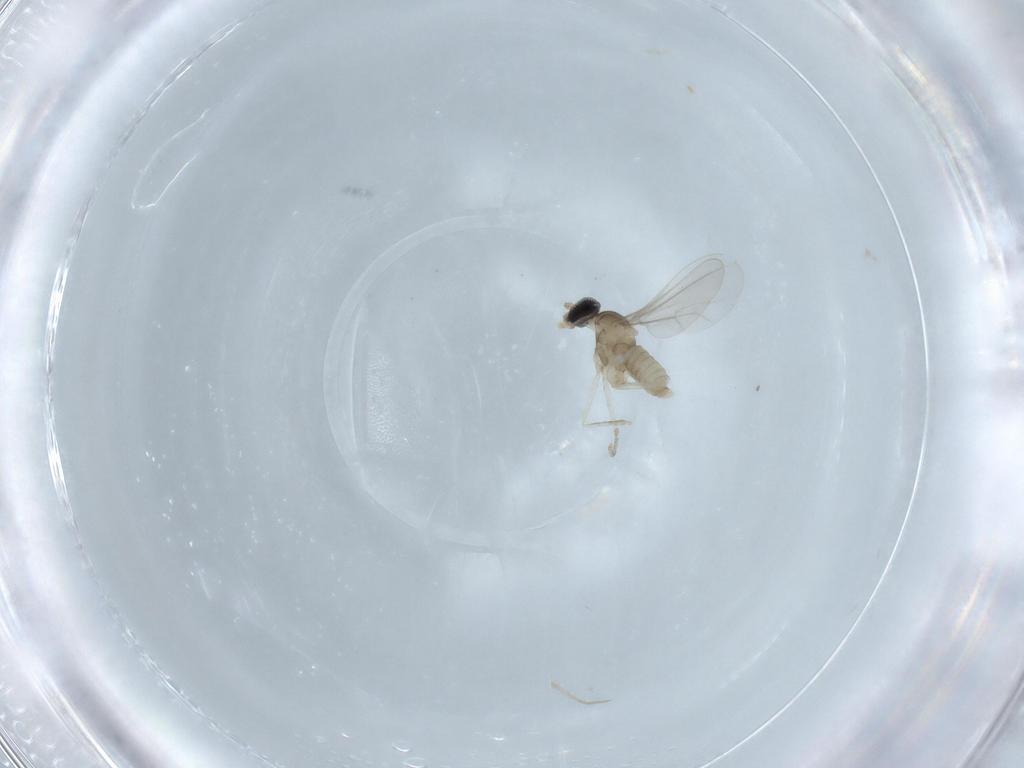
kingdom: Animalia
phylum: Arthropoda
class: Insecta
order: Diptera
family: Cecidomyiidae
